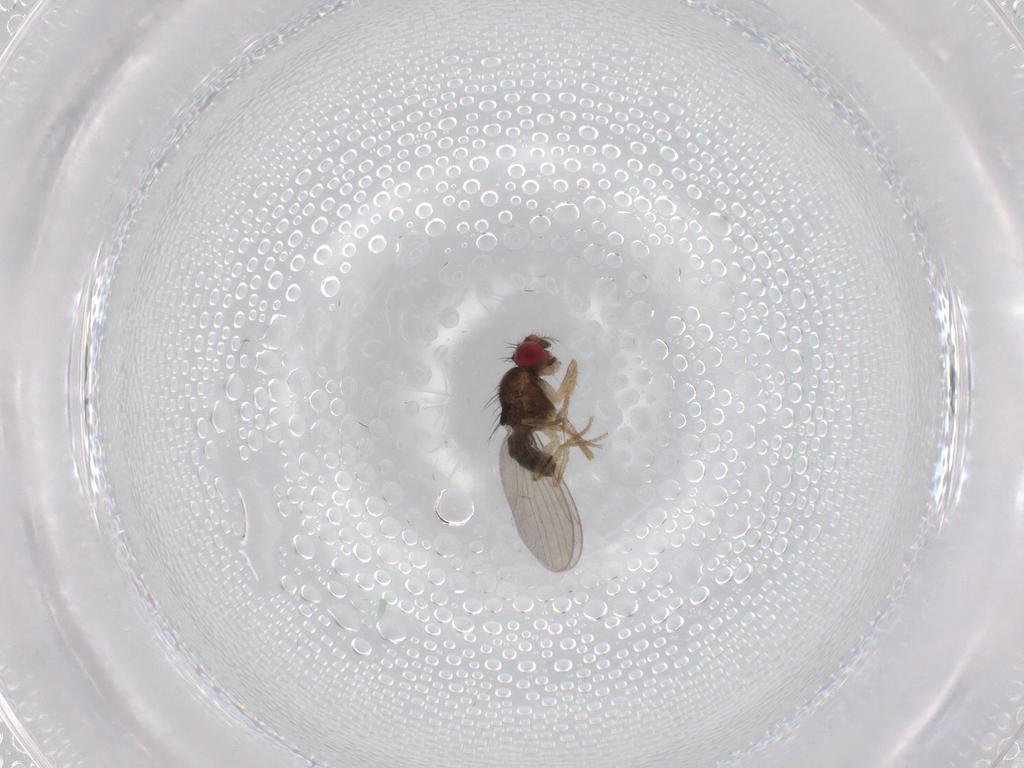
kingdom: Animalia
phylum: Arthropoda
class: Insecta
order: Diptera
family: Drosophilidae
